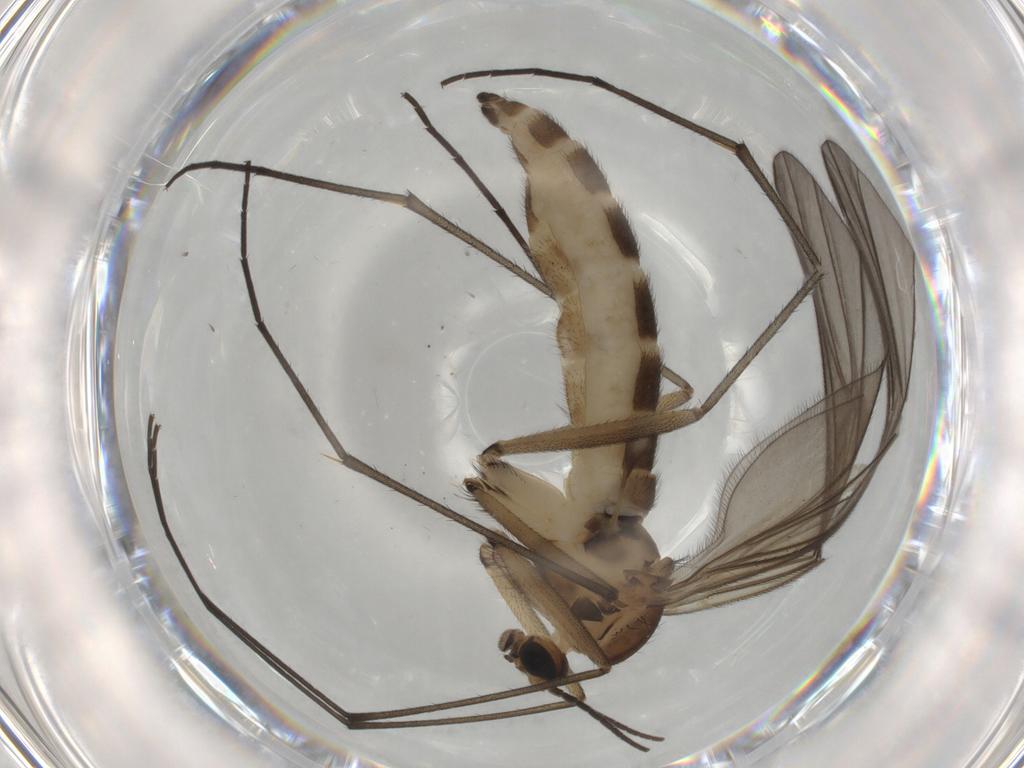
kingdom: Animalia
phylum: Arthropoda
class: Insecta
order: Diptera
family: Sciaridae
